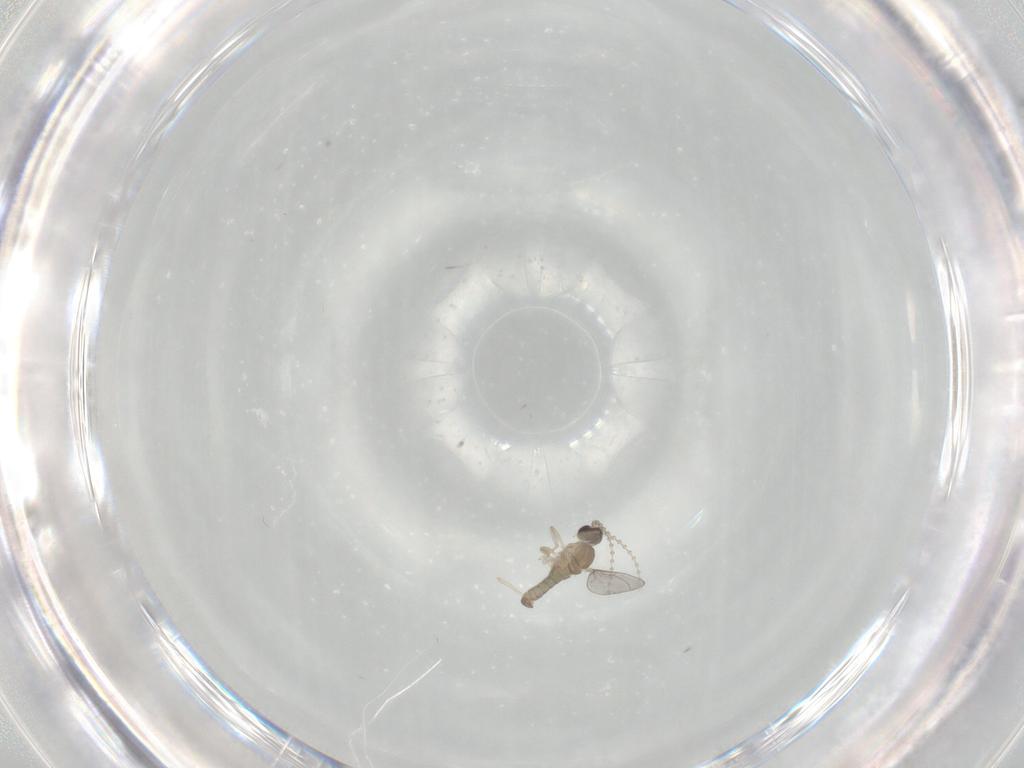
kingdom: Animalia
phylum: Arthropoda
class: Insecta
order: Diptera
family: Cecidomyiidae
